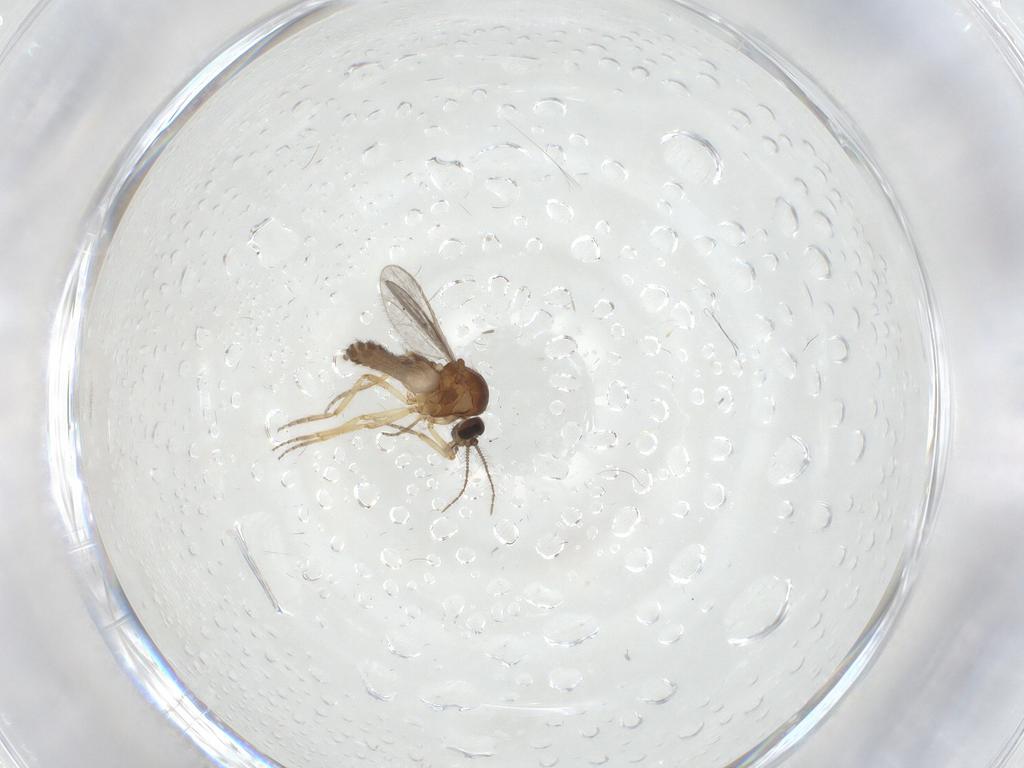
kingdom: Animalia
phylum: Arthropoda
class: Insecta
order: Diptera
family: Ceratopogonidae
